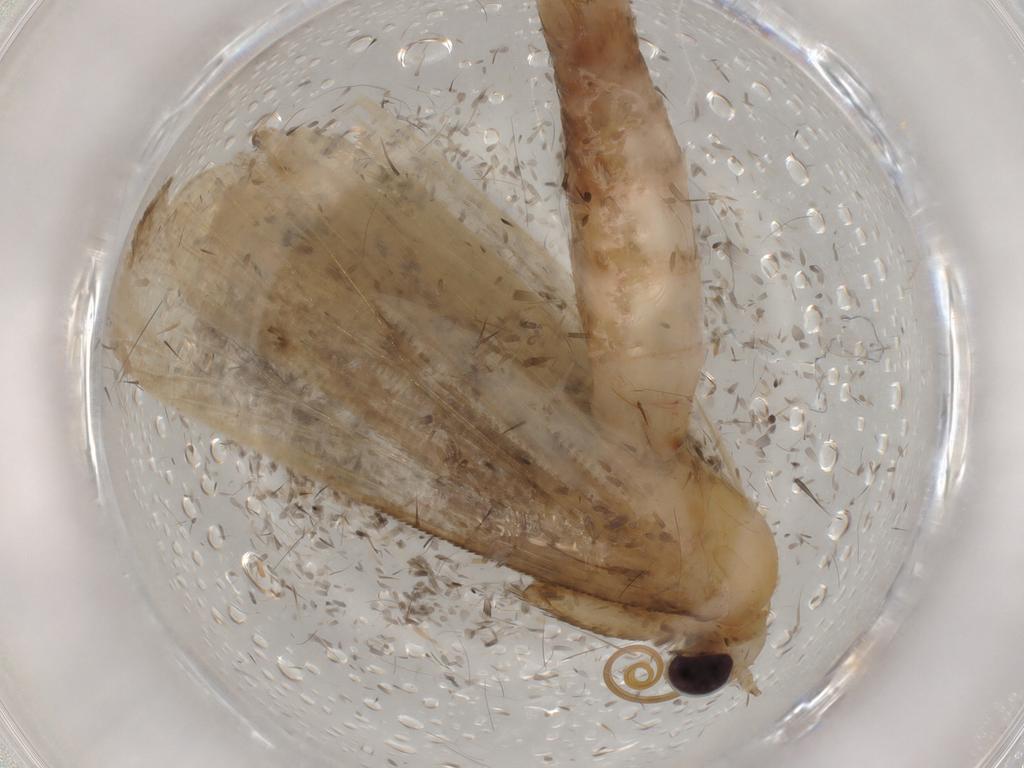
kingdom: Animalia
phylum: Arthropoda
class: Insecta
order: Lepidoptera
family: Noctuidae
